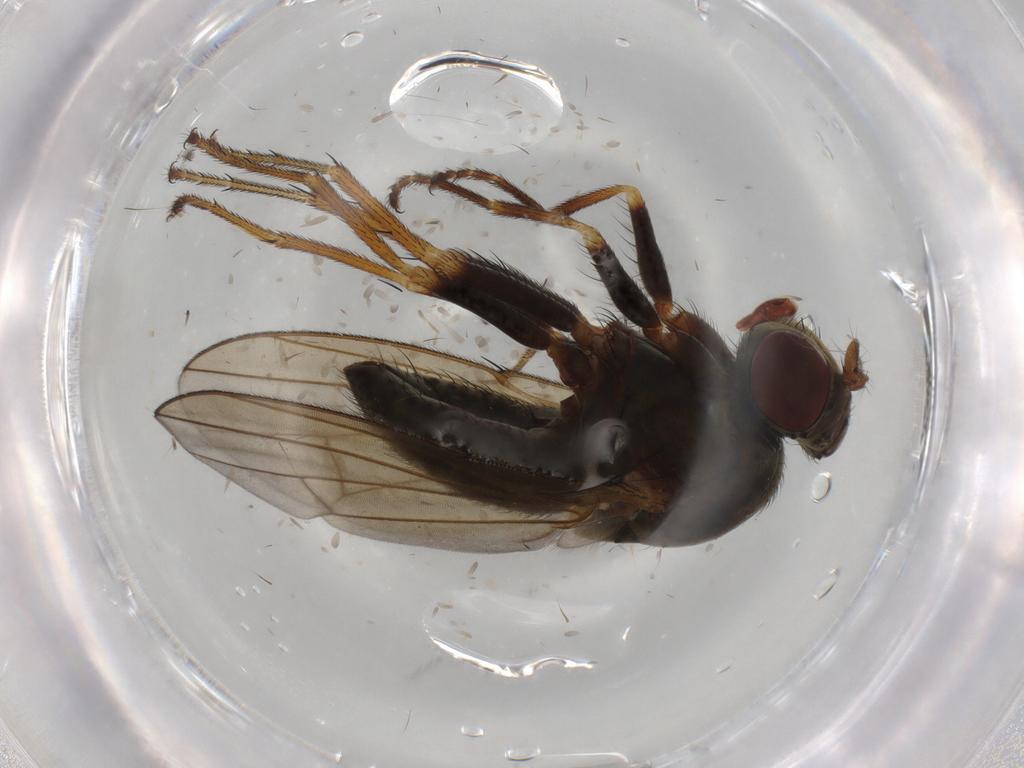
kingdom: Animalia
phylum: Arthropoda
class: Insecta
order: Diptera
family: Ephydridae
